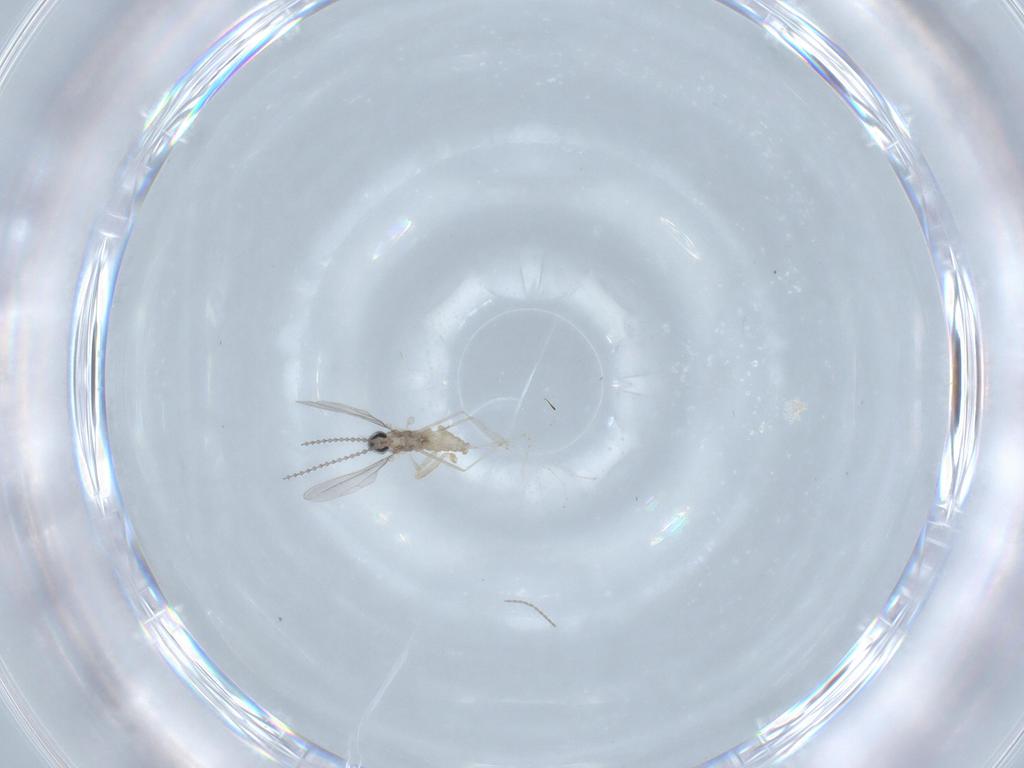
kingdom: Animalia
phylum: Arthropoda
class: Insecta
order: Diptera
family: Cecidomyiidae
